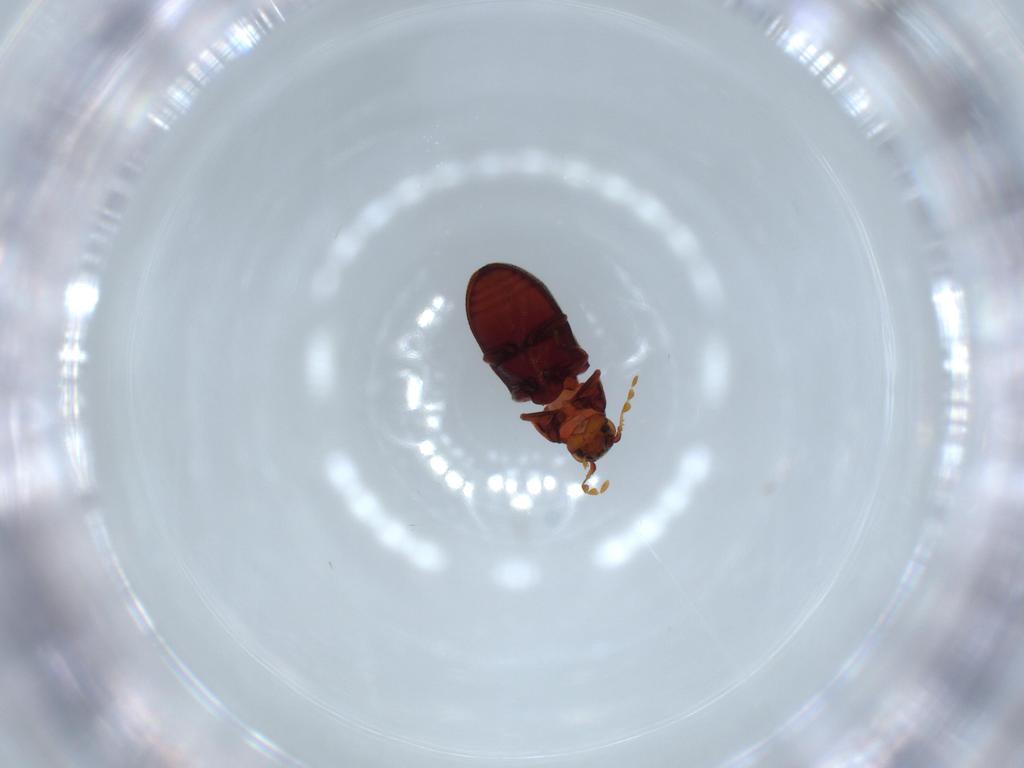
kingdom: Animalia
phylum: Arthropoda
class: Insecta
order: Coleoptera
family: Ptinidae
